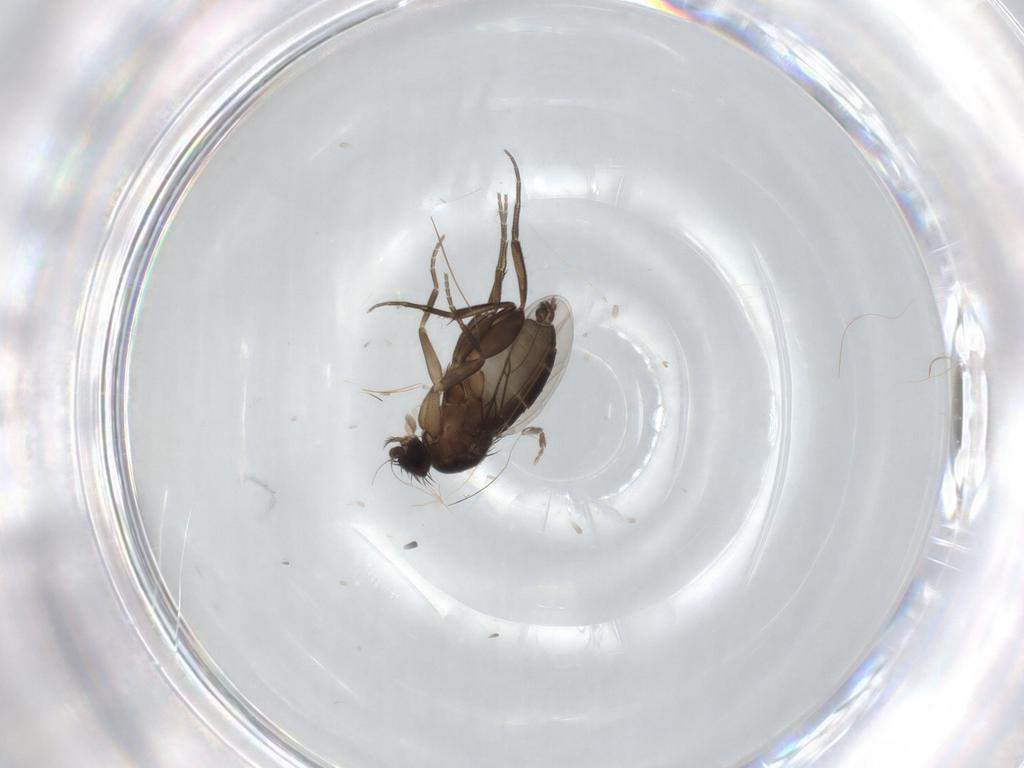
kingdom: Animalia
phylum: Arthropoda
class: Insecta
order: Diptera
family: Phoridae
